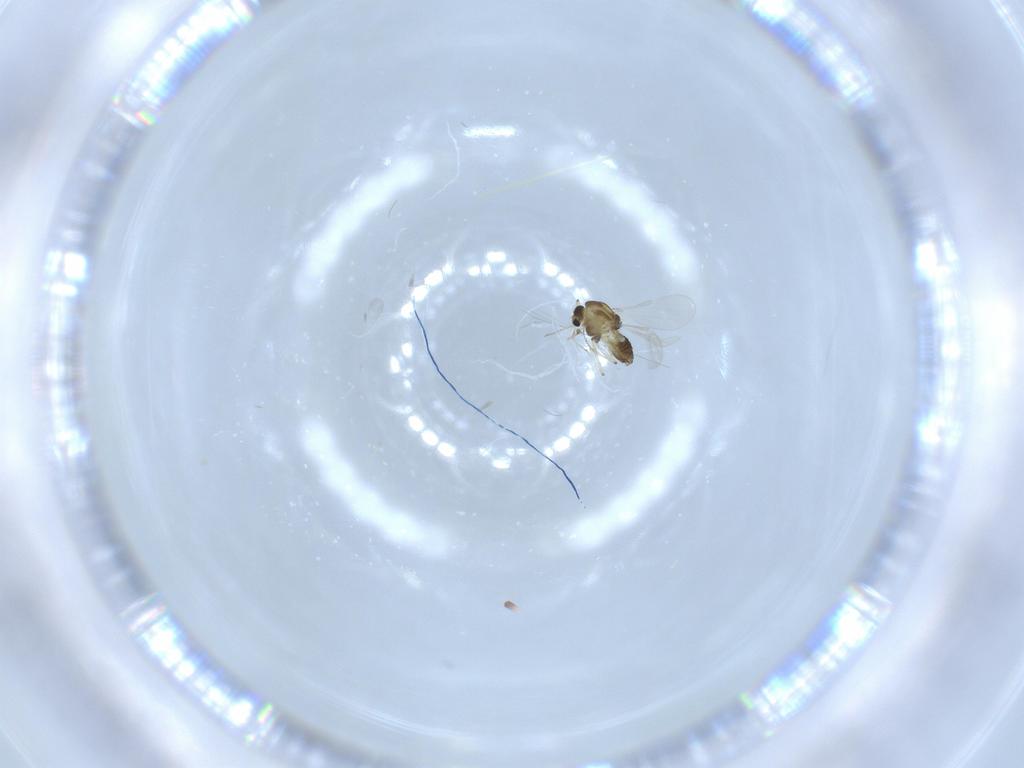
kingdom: Animalia
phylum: Arthropoda
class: Insecta
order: Diptera
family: Chironomidae
